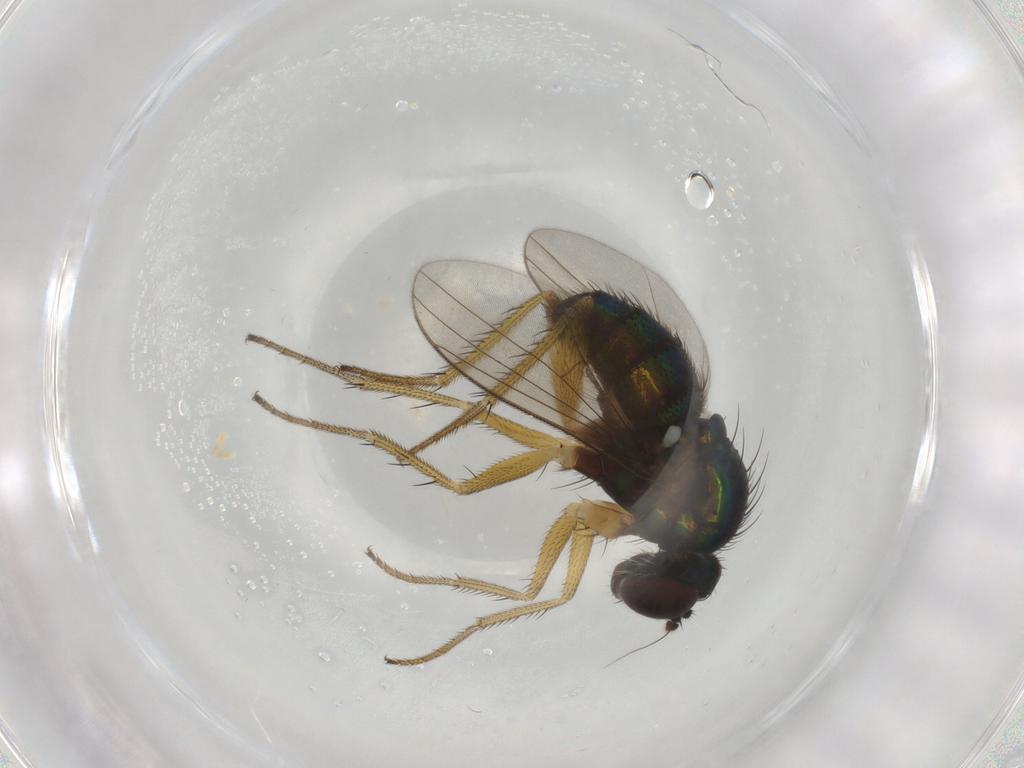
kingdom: Animalia
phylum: Arthropoda
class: Insecta
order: Diptera
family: Dolichopodidae
